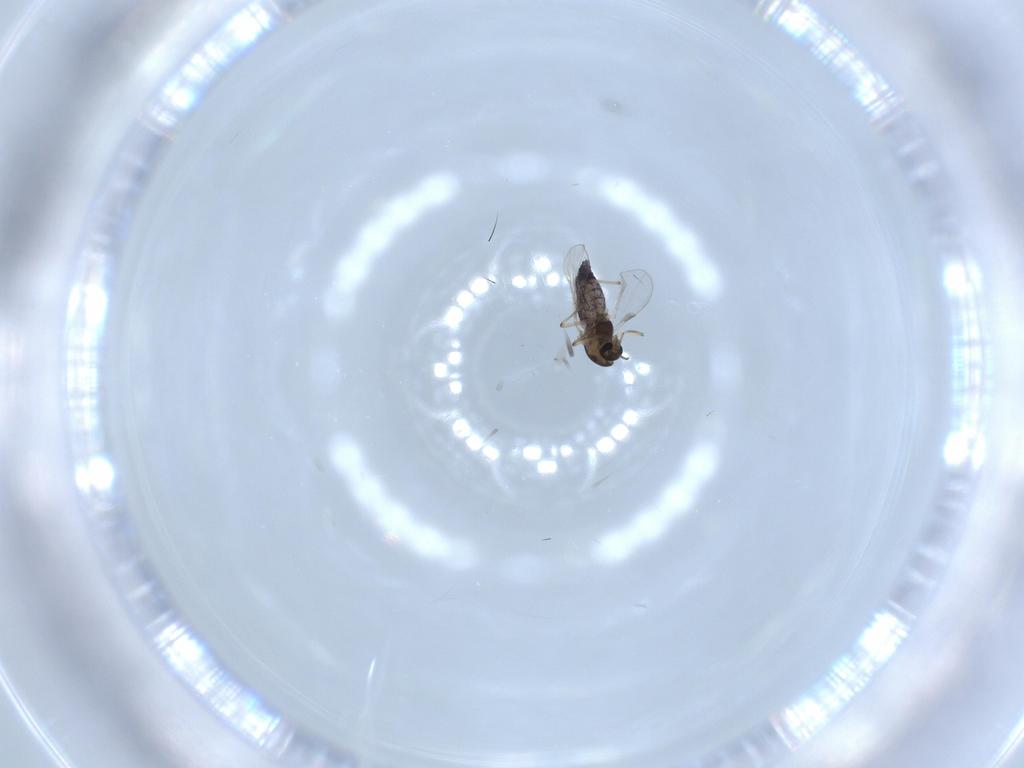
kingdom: Animalia
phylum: Arthropoda
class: Insecta
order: Diptera
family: Chironomidae
